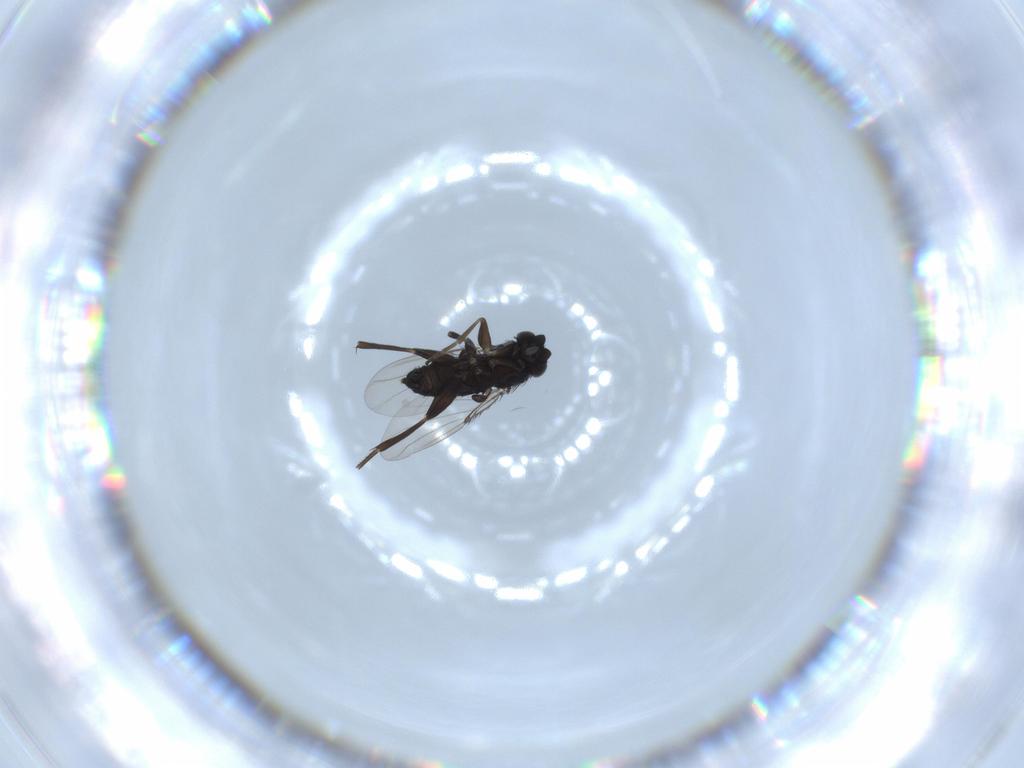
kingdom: Animalia
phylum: Arthropoda
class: Insecta
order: Diptera
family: Phoridae
